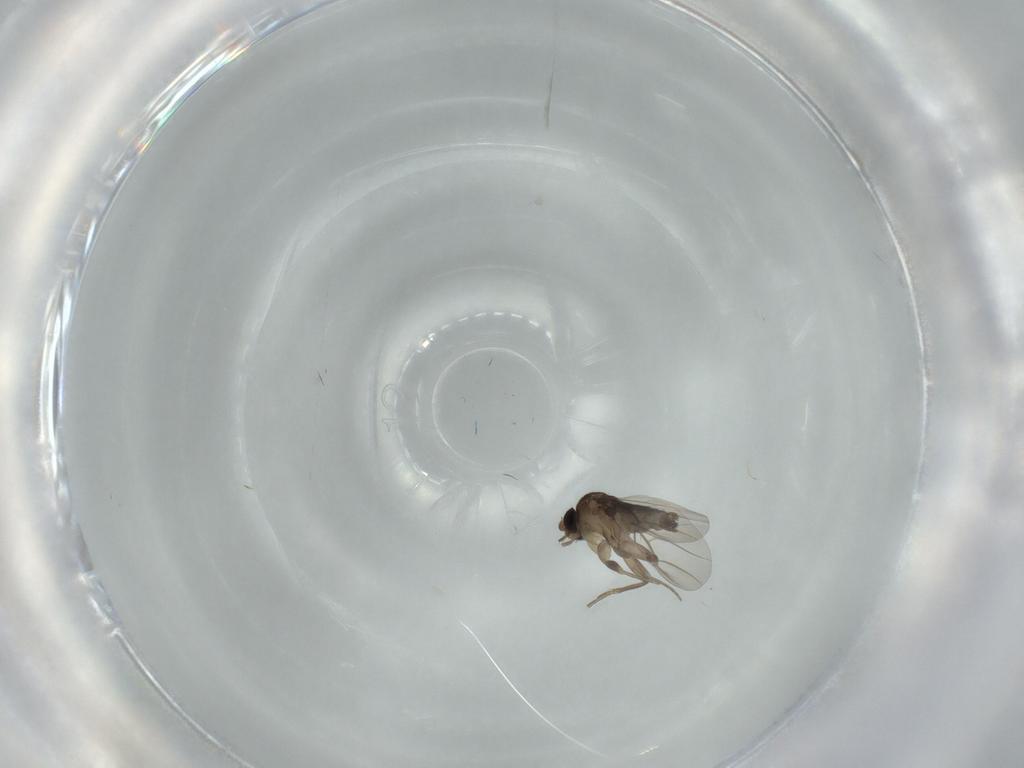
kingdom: Animalia
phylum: Arthropoda
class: Insecta
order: Diptera
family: Phoridae
